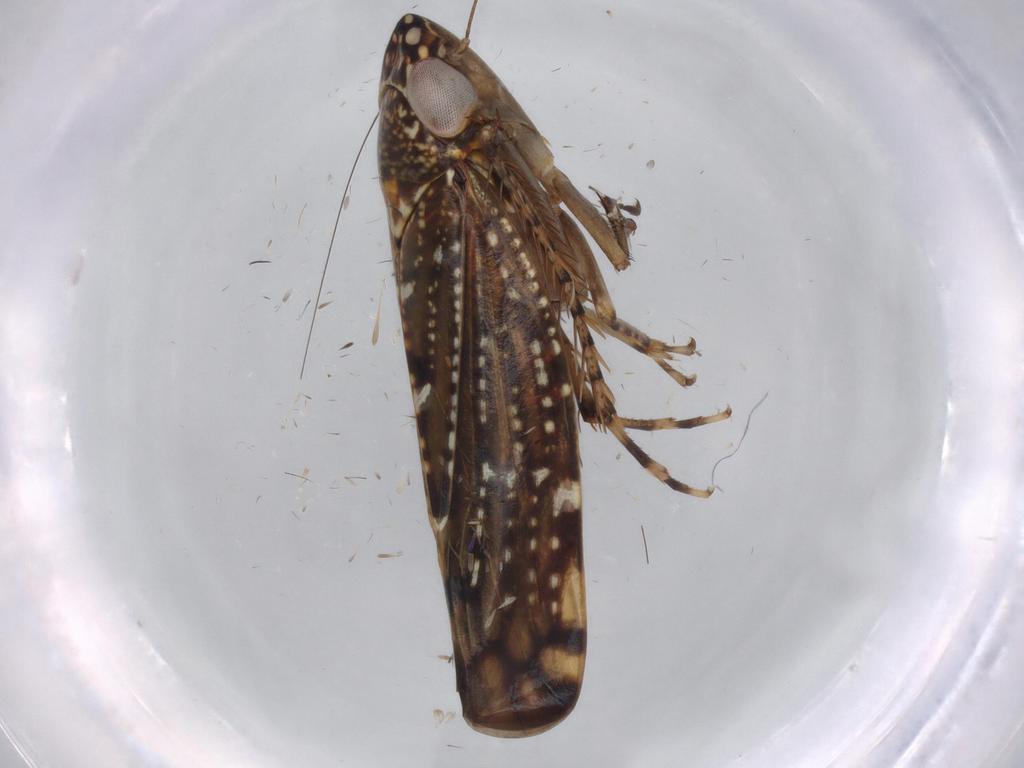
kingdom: Animalia
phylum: Arthropoda
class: Insecta
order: Hemiptera
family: Cicadellidae
